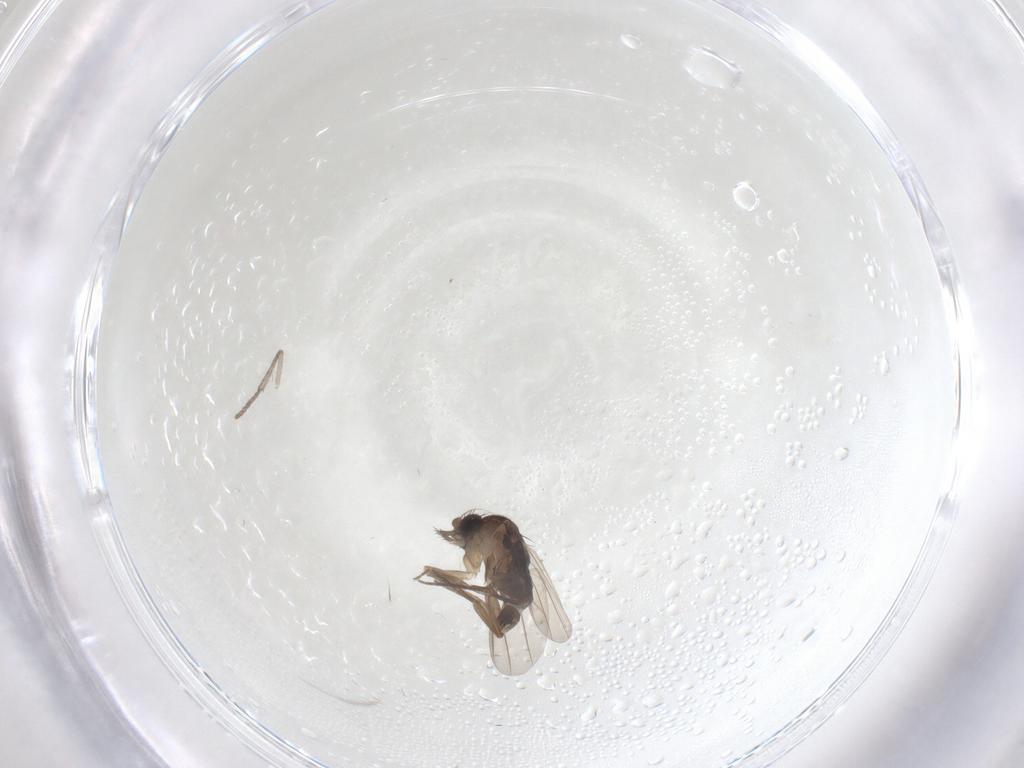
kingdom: Animalia
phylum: Arthropoda
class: Insecta
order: Diptera
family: Phoridae
